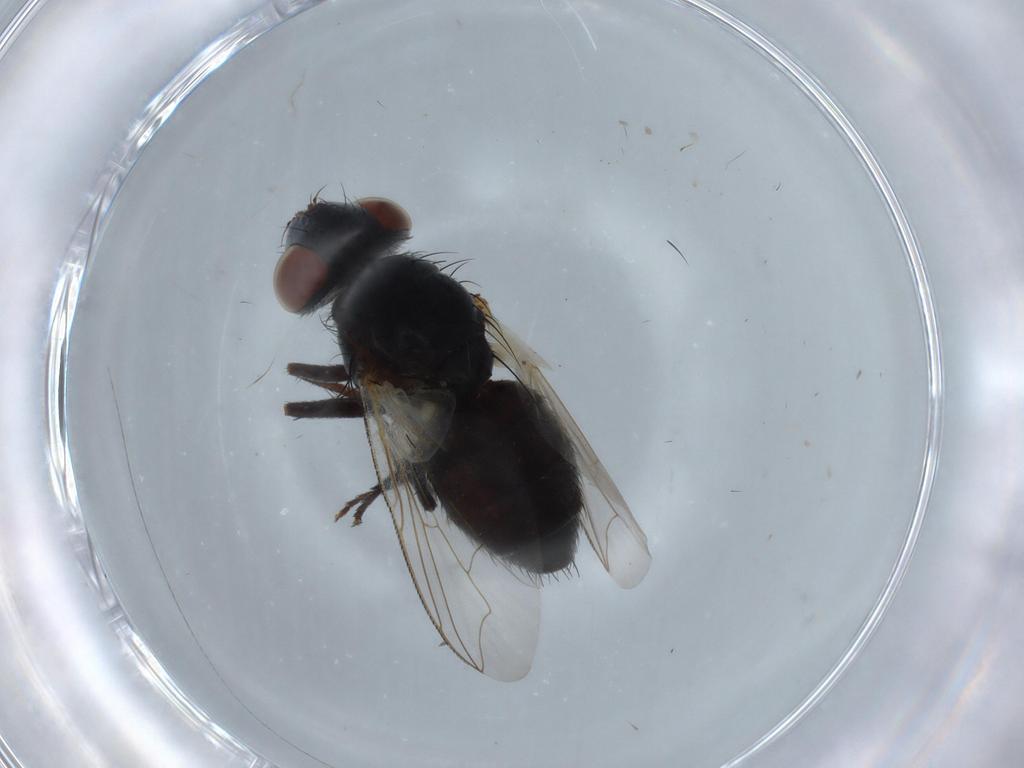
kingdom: Animalia
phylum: Arthropoda
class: Insecta
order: Diptera
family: Sarcophagidae
